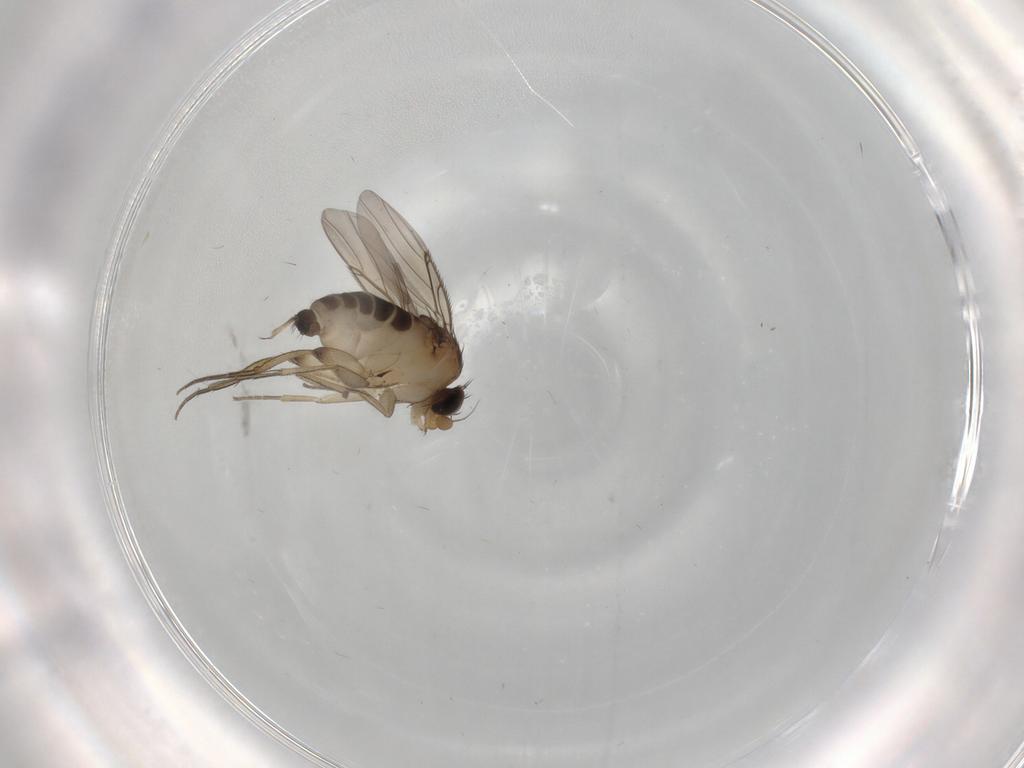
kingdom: Animalia
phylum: Arthropoda
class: Insecta
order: Diptera
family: Phoridae
